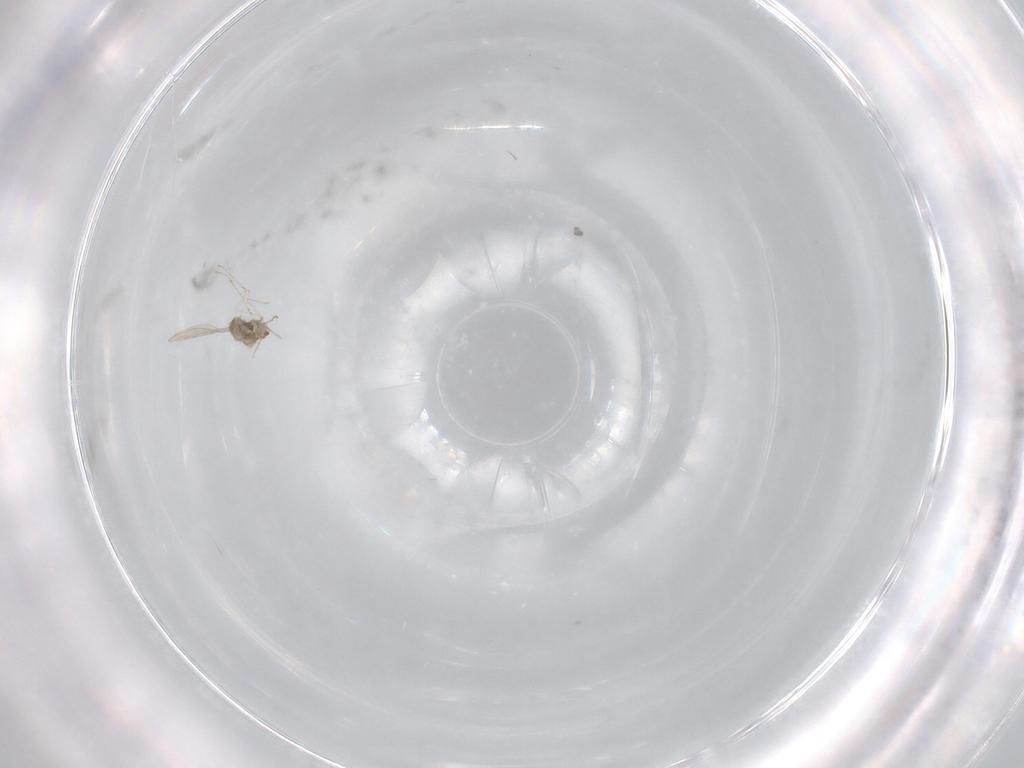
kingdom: Animalia
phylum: Arthropoda
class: Insecta
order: Diptera
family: Cecidomyiidae
